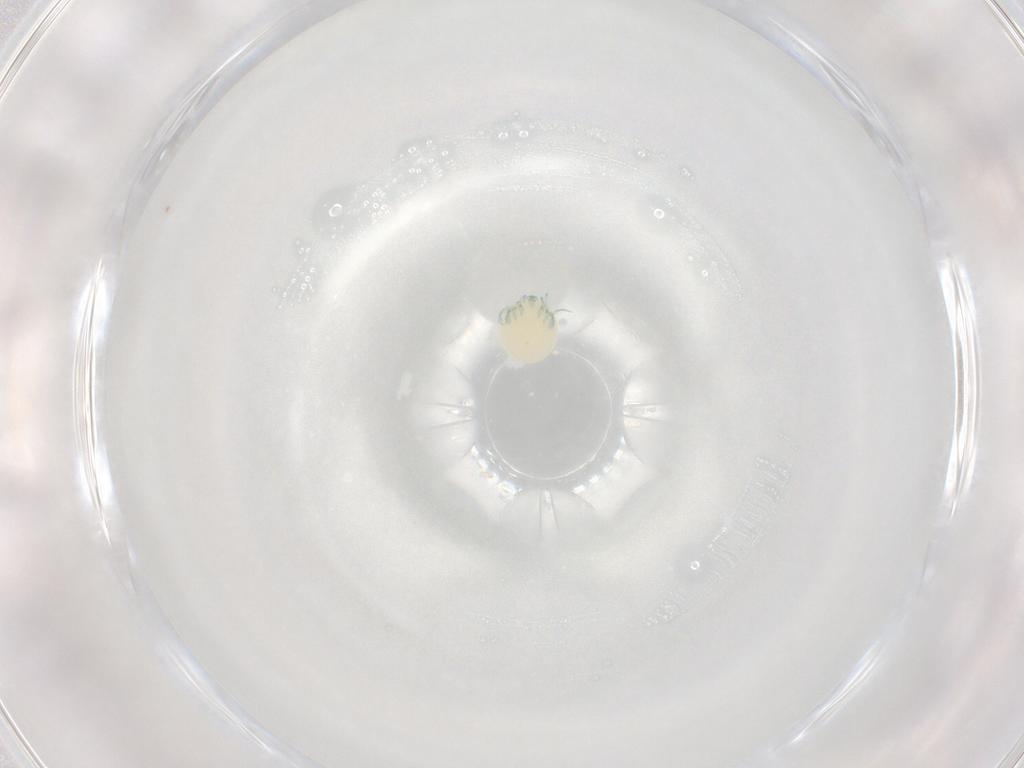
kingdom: Animalia
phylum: Arthropoda
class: Arachnida
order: Trombidiformes
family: Arrenuridae
